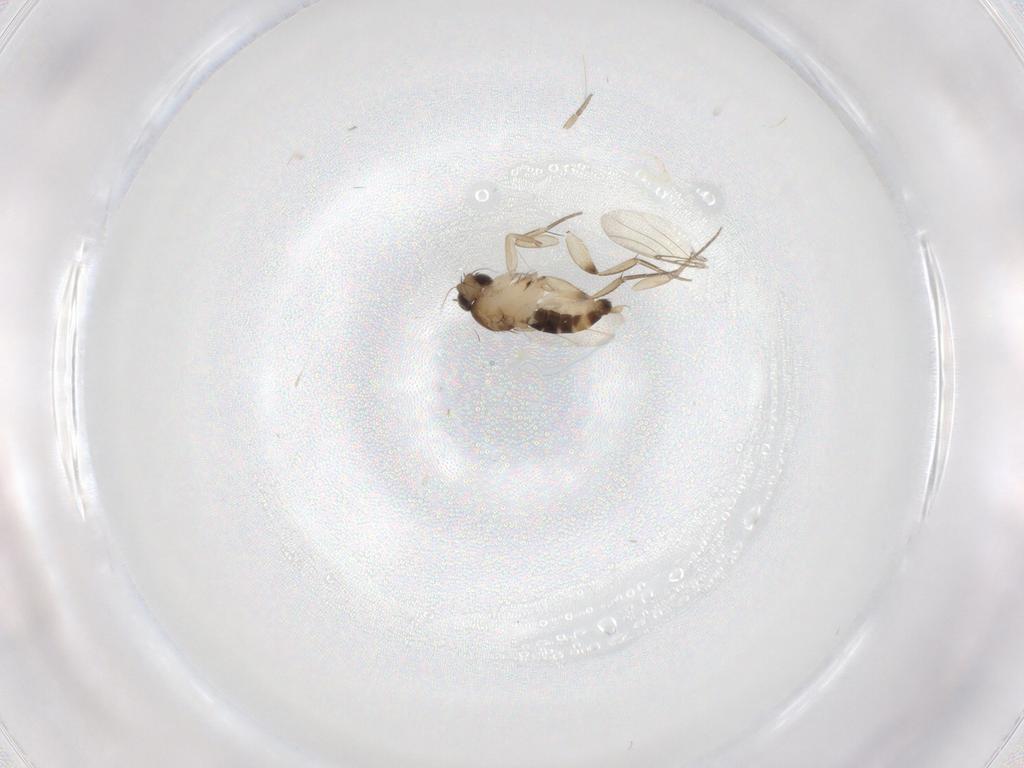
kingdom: Animalia
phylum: Arthropoda
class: Insecta
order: Diptera
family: Phoridae
